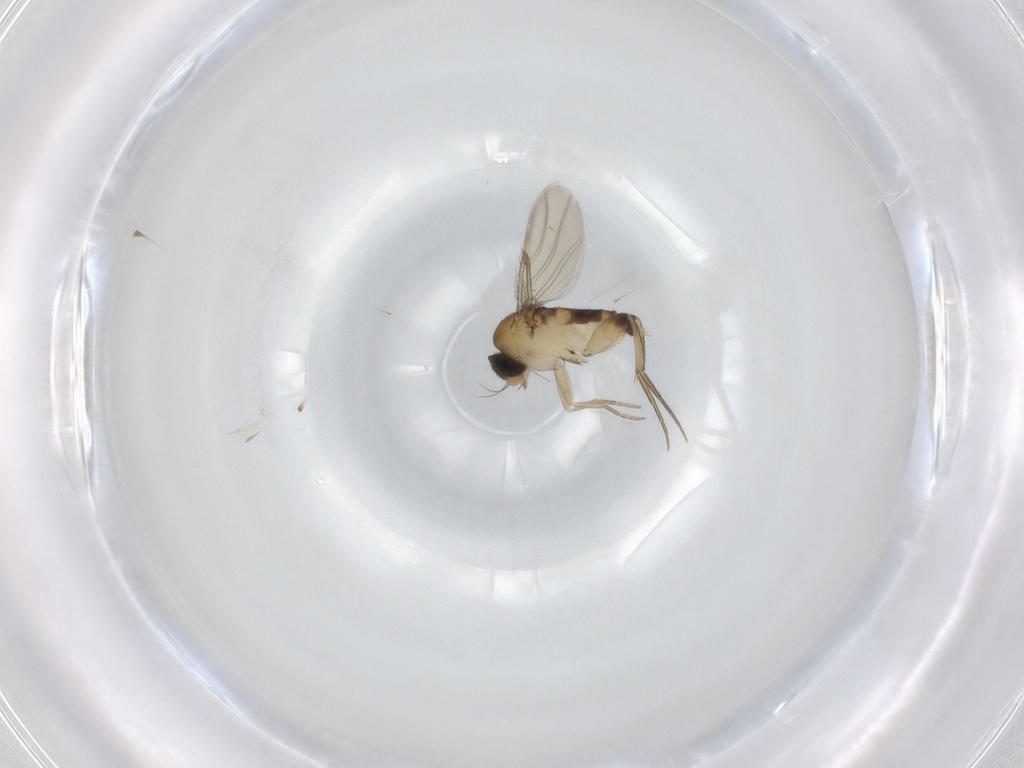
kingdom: Animalia
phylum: Arthropoda
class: Insecta
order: Diptera
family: Phoridae
